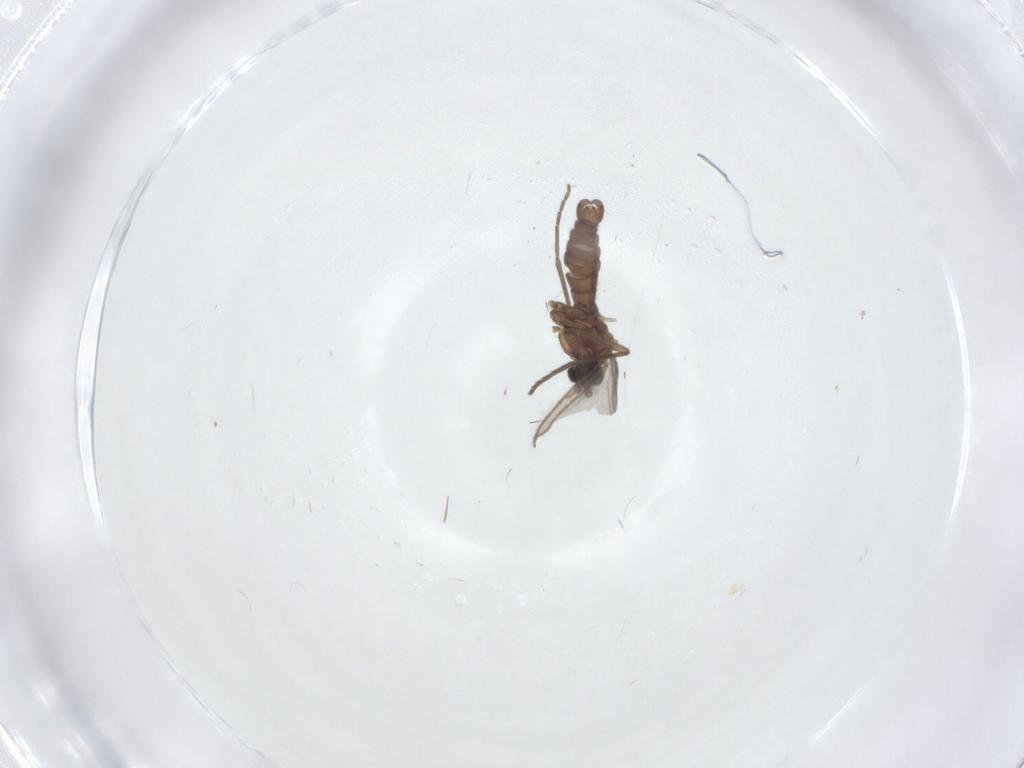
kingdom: Animalia
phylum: Arthropoda
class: Insecta
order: Diptera
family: Sciaridae
